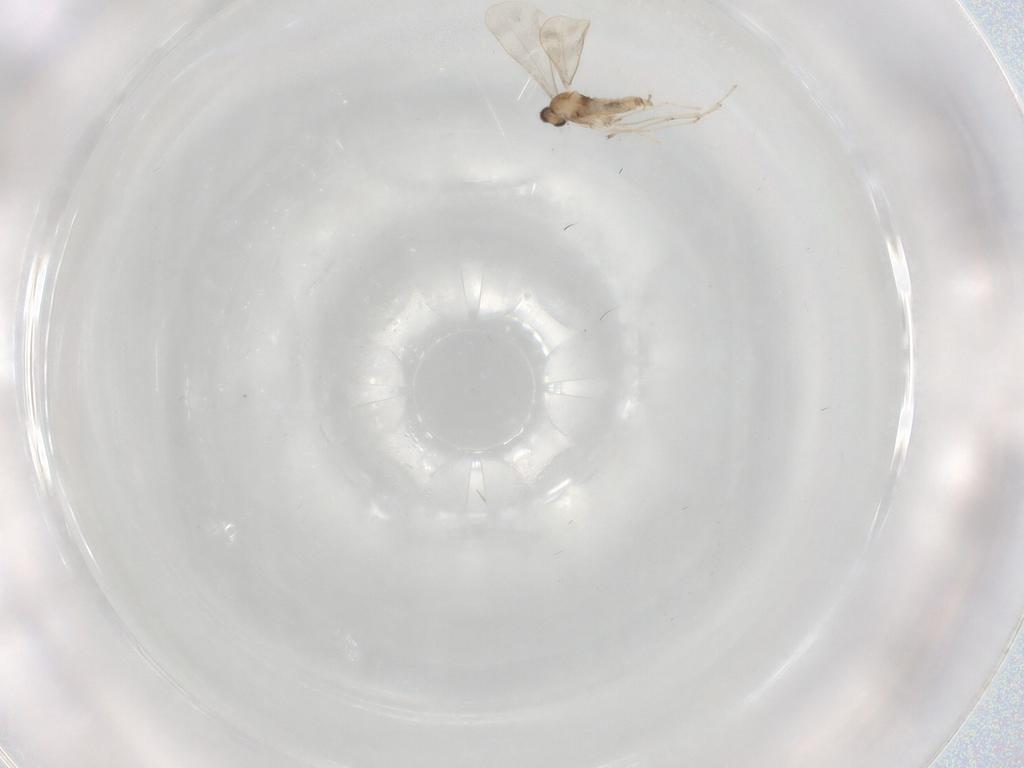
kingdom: Animalia
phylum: Arthropoda
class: Insecta
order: Diptera
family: Cecidomyiidae
